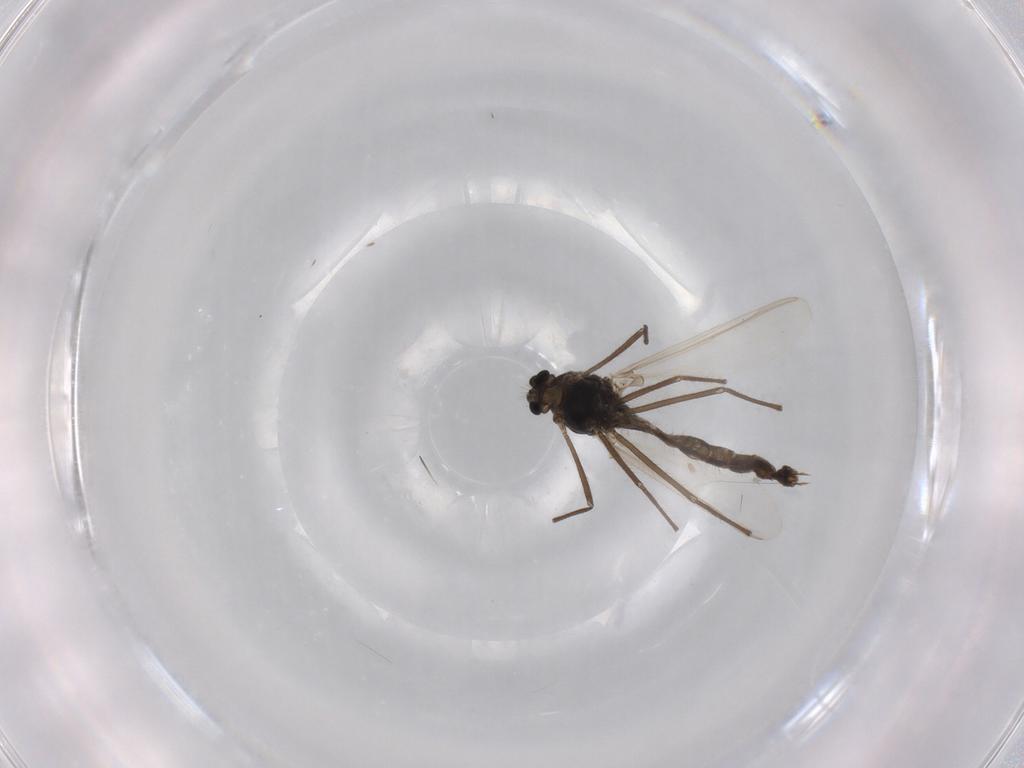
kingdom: Animalia
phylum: Arthropoda
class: Insecta
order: Diptera
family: Chironomidae
